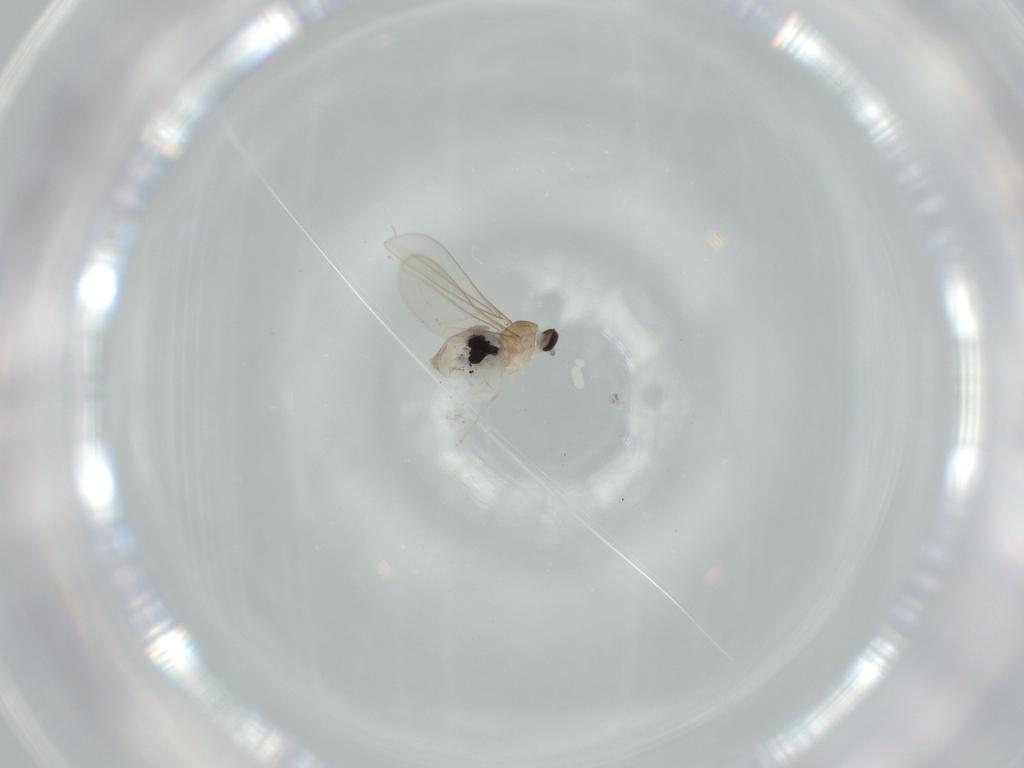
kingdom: Animalia
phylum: Arthropoda
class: Insecta
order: Diptera
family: Cecidomyiidae
